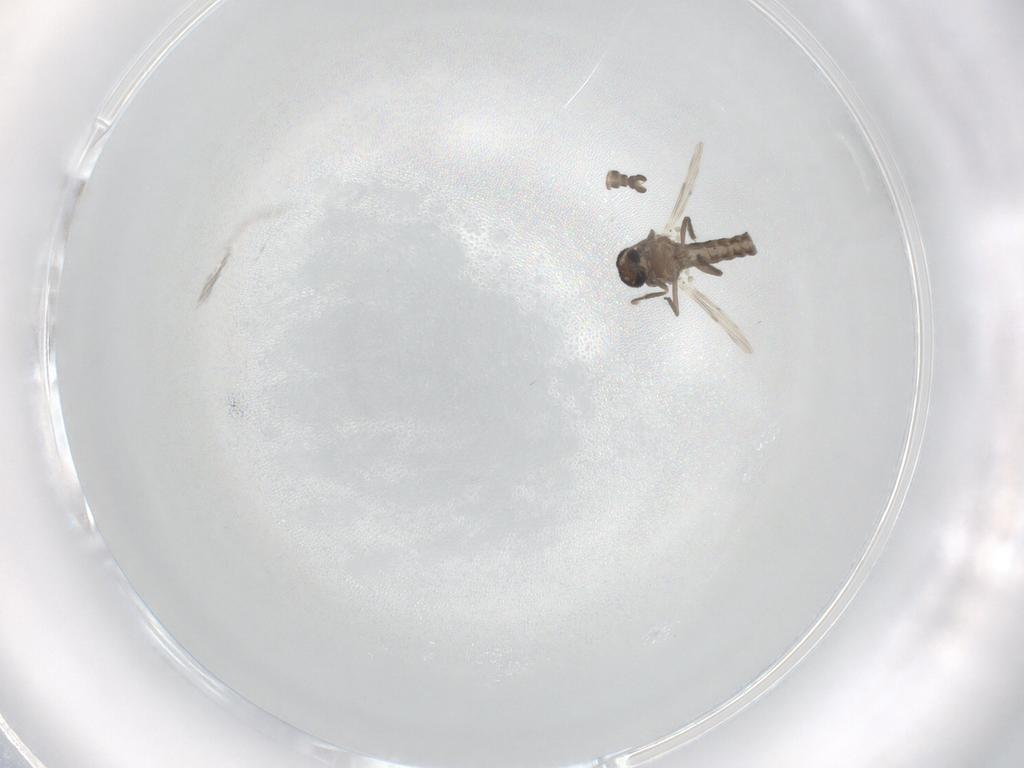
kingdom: Animalia
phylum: Arthropoda
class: Insecta
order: Diptera
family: Ceratopogonidae
